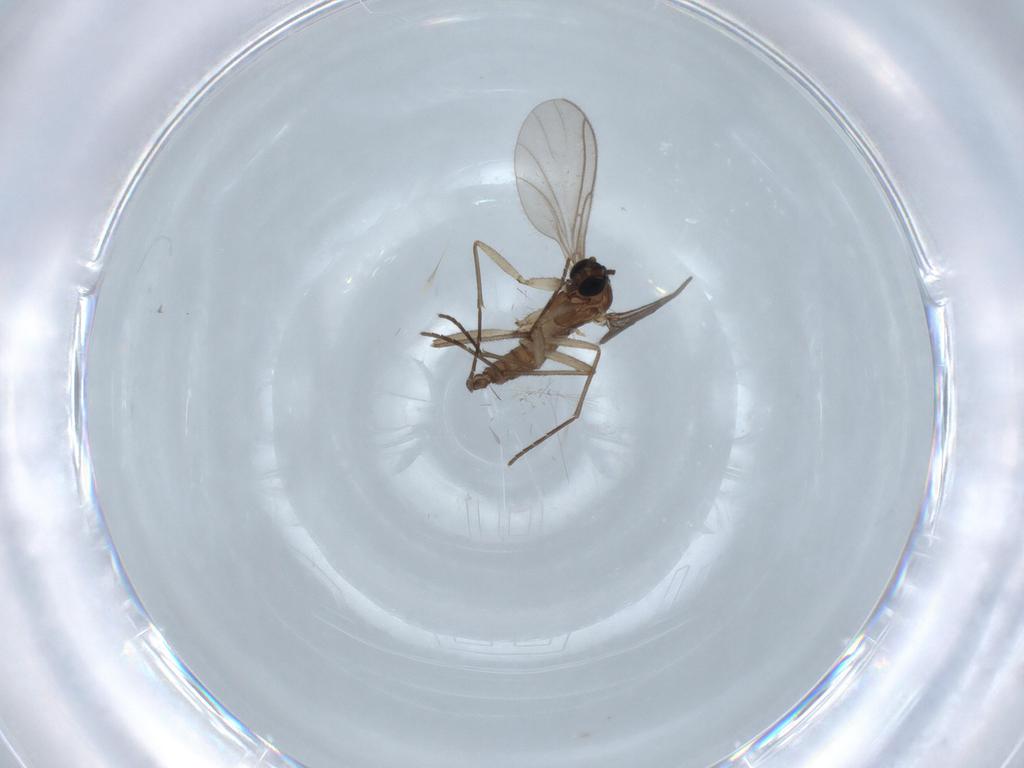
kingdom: Animalia
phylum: Arthropoda
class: Insecta
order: Diptera
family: Sciaridae
